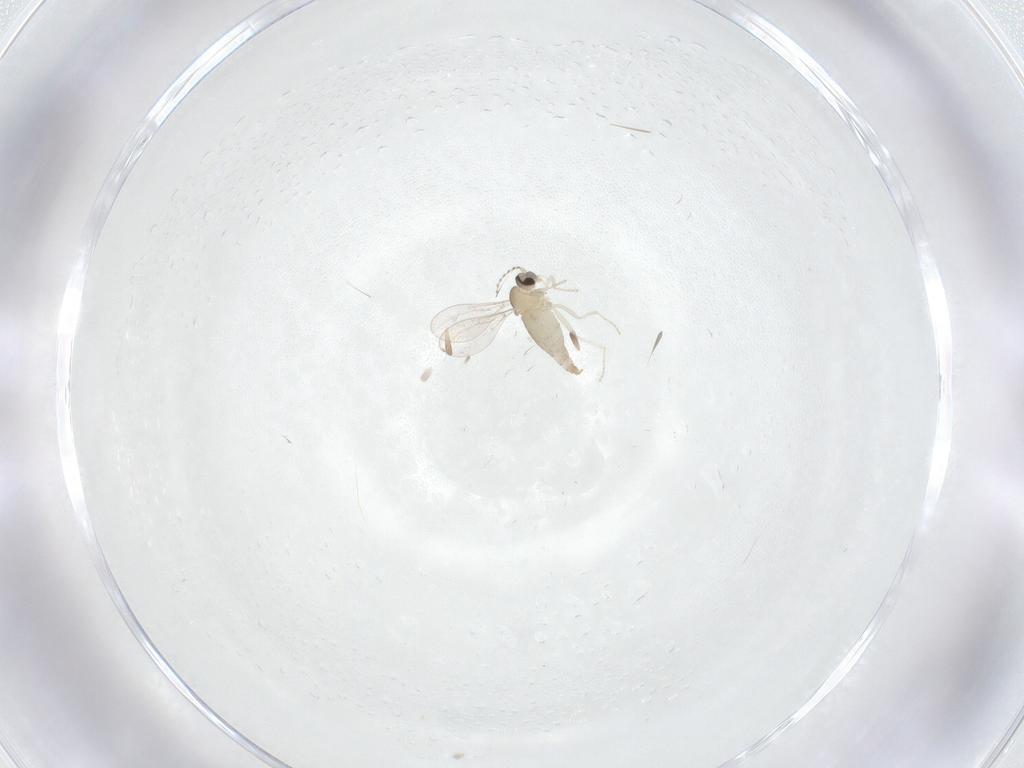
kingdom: Animalia
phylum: Arthropoda
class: Insecta
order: Diptera
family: Cecidomyiidae
